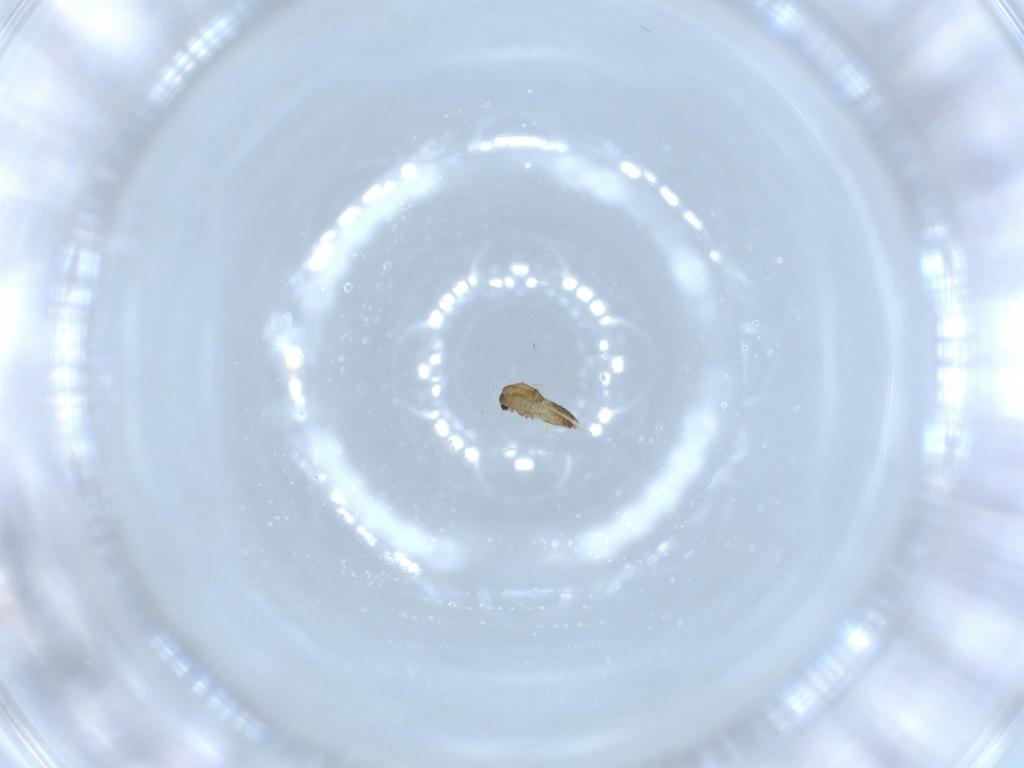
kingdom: Animalia
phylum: Arthropoda
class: Insecta
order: Diptera
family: Chironomidae
